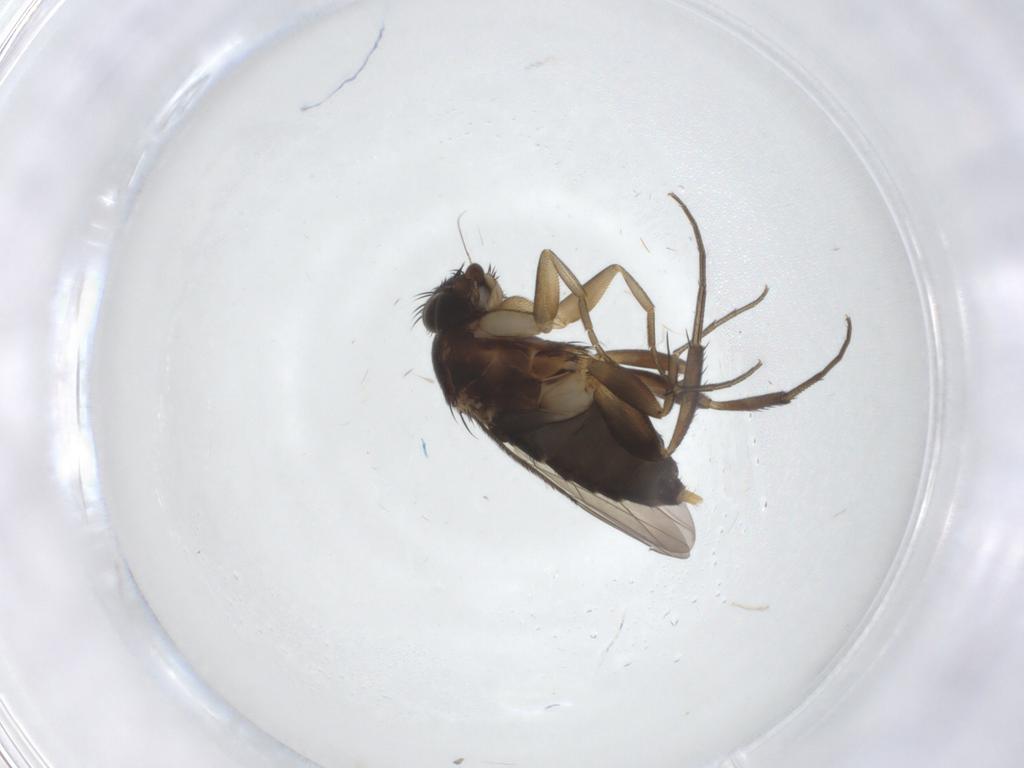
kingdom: Animalia
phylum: Arthropoda
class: Insecta
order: Diptera
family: Phoridae
